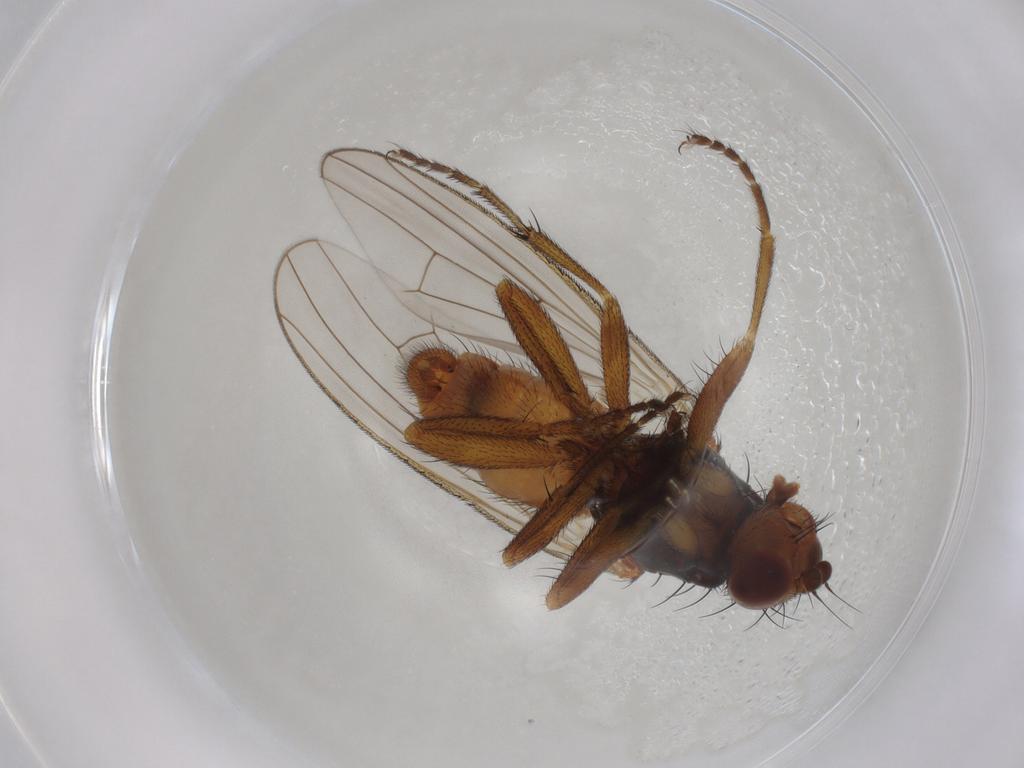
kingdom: Animalia
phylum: Arthropoda
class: Insecta
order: Diptera
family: Heleomyzidae
